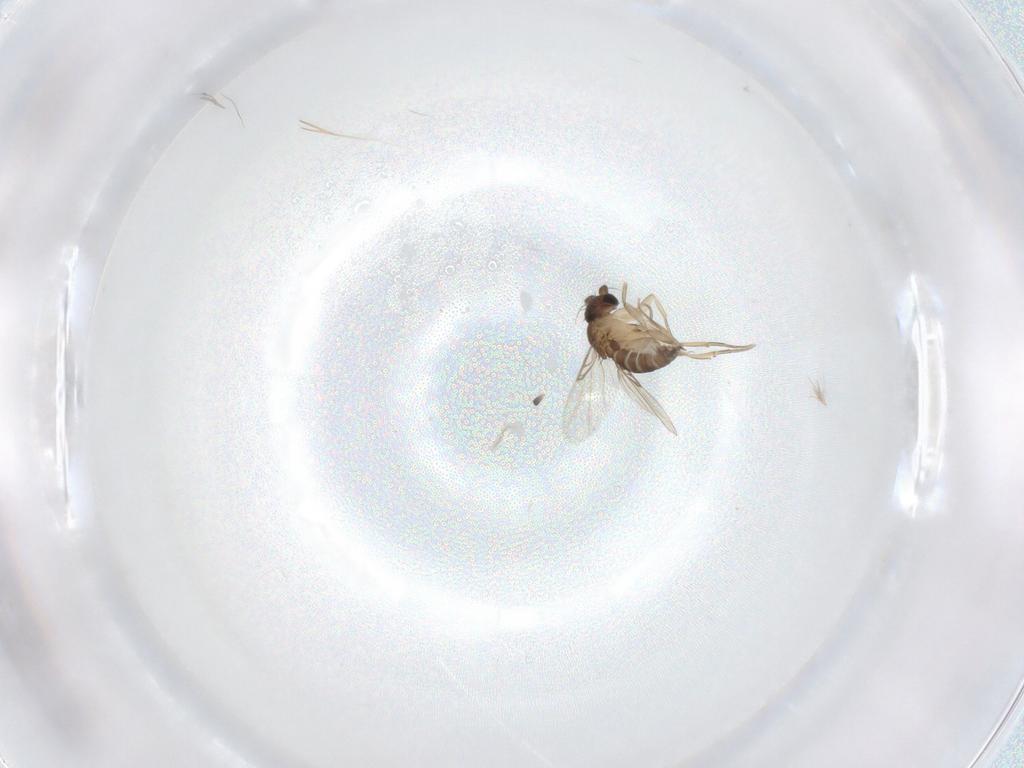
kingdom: Animalia
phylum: Arthropoda
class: Insecta
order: Diptera
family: Phoridae
